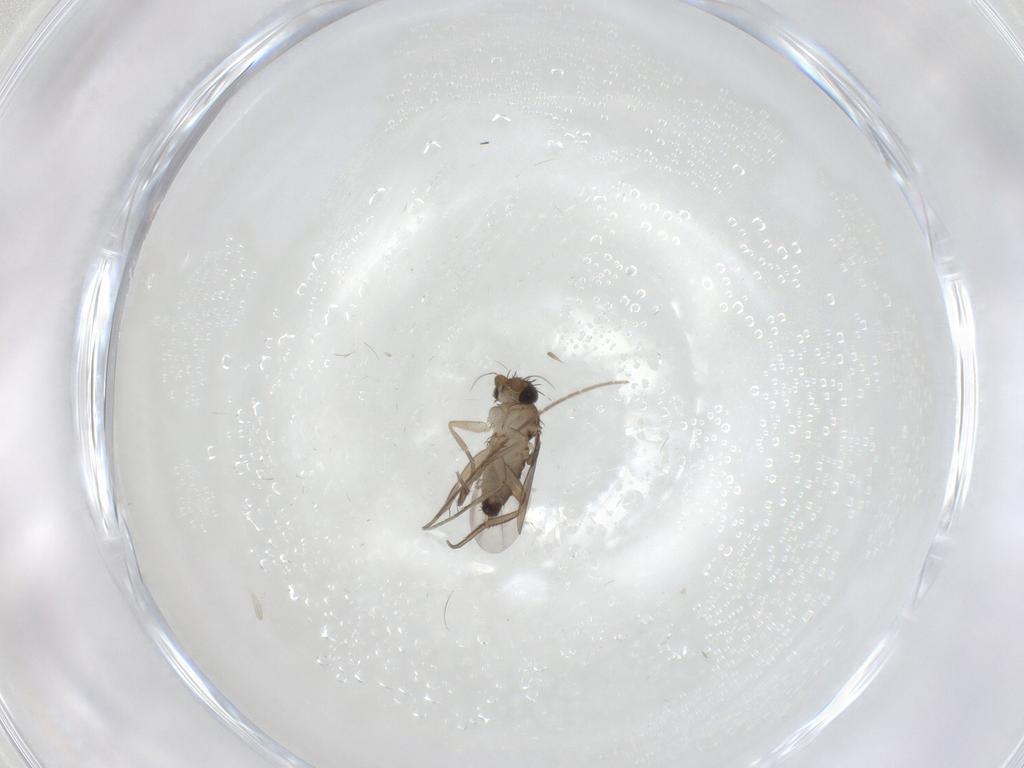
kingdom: Animalia
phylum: Arthropoda
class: Insecta
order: Diptera
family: Phoridae
